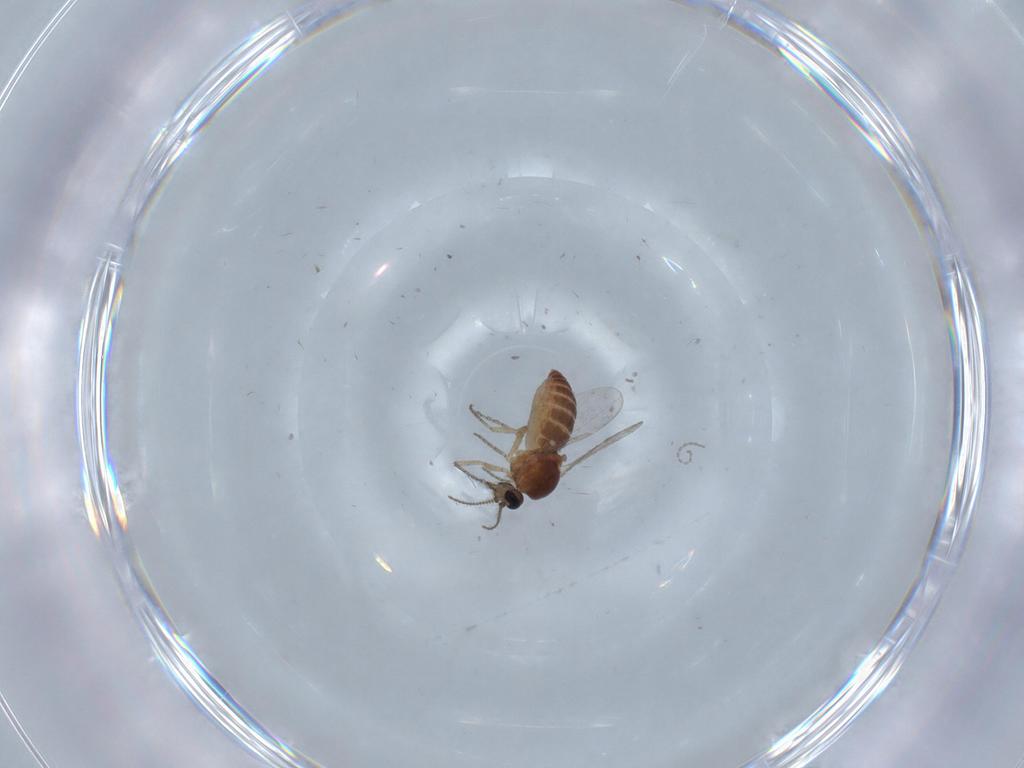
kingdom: Animalia
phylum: Arthropoda
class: Insecta
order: Diptera
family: Ceratopogonidae
